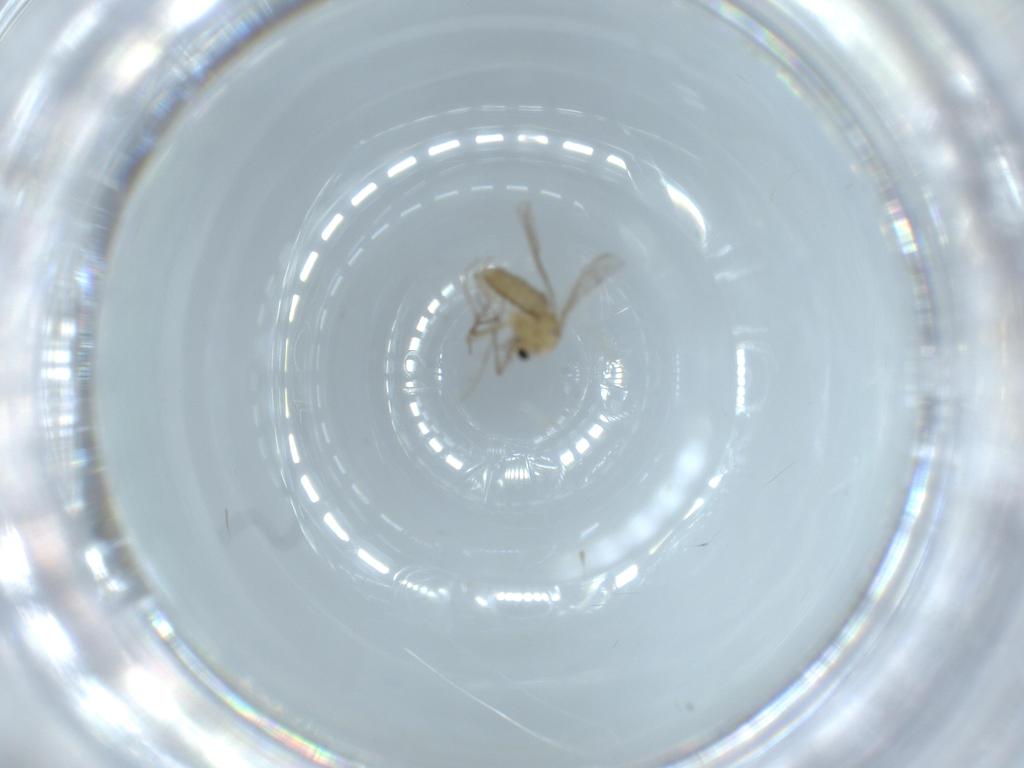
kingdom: Animalia
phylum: Arthropoda
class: Insecta
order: Diptera
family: Chironomidae
